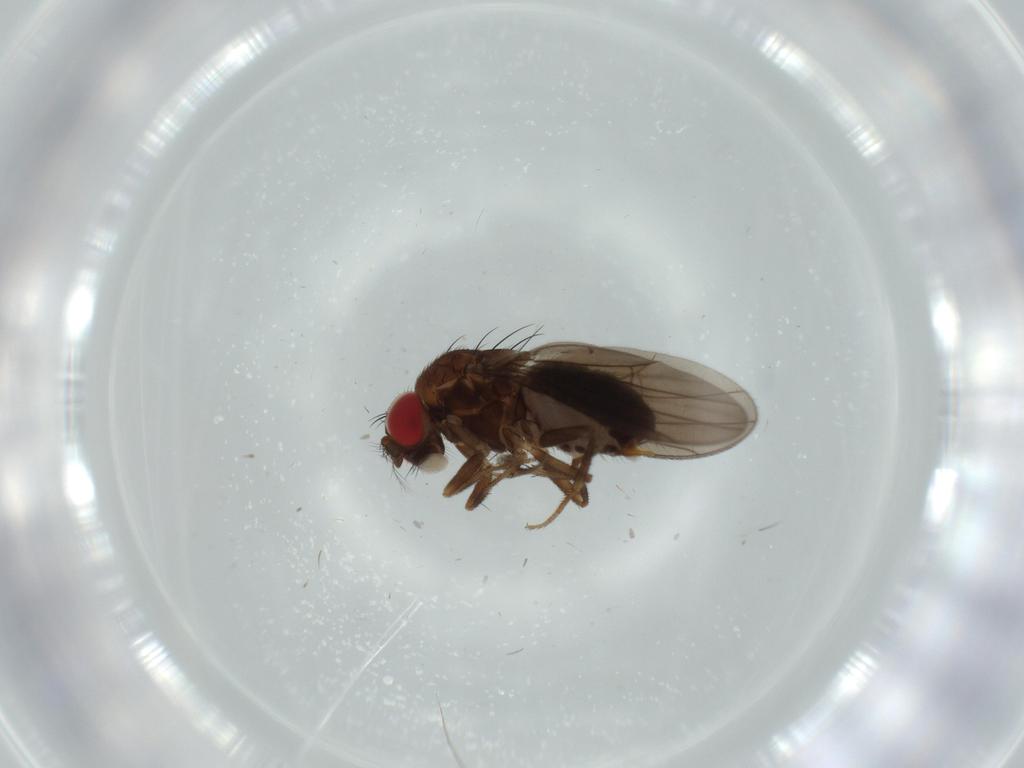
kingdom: Animalia
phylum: Arthropoda
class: Insecta
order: Diptera
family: Drosophilidae
